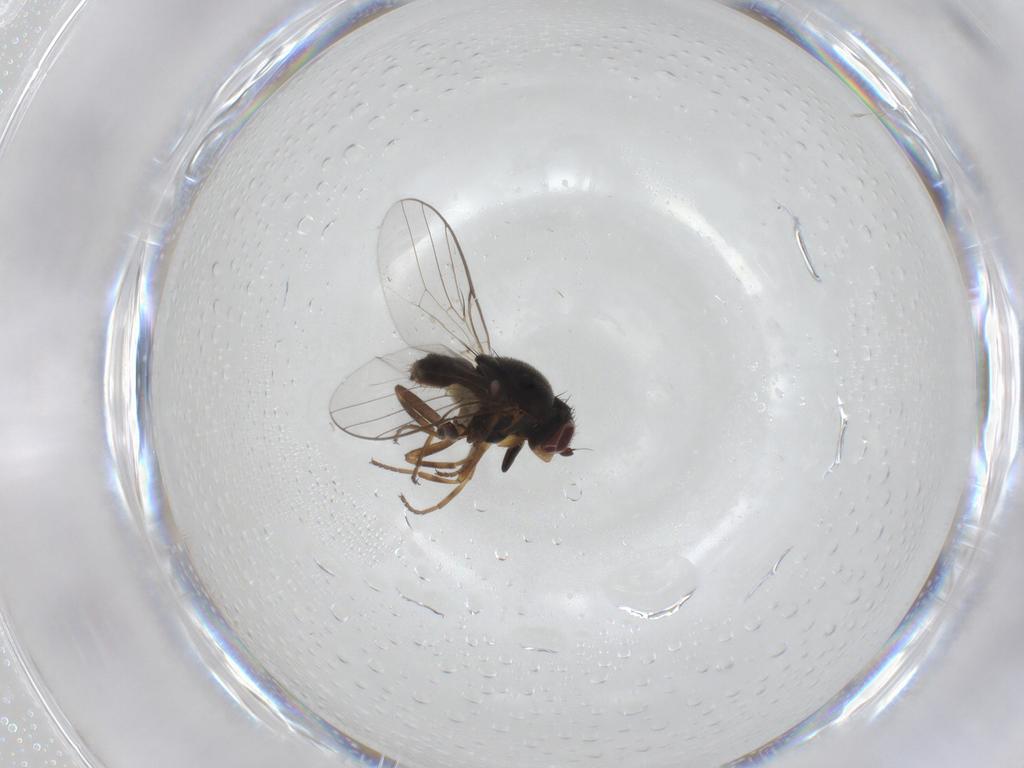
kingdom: Animalia
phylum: Arthropoda
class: Insecta
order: Diptera
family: Chloropidae
